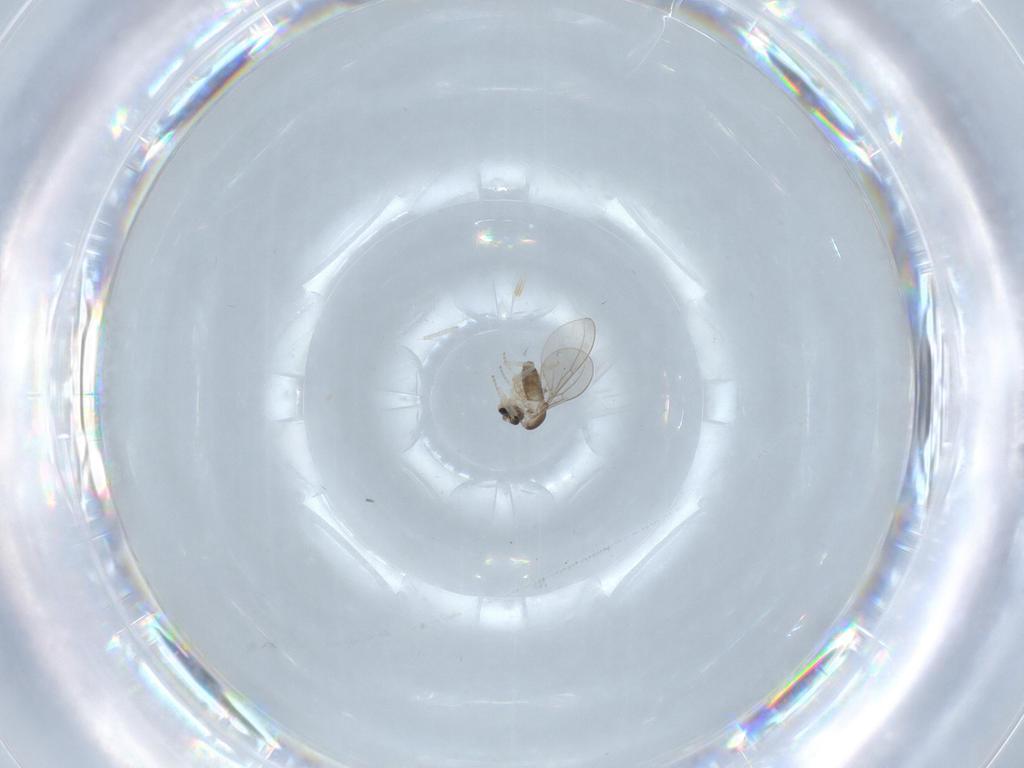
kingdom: Animalia
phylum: Arthropoda
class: Insecta
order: Diptera
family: Cecidomyiidae
